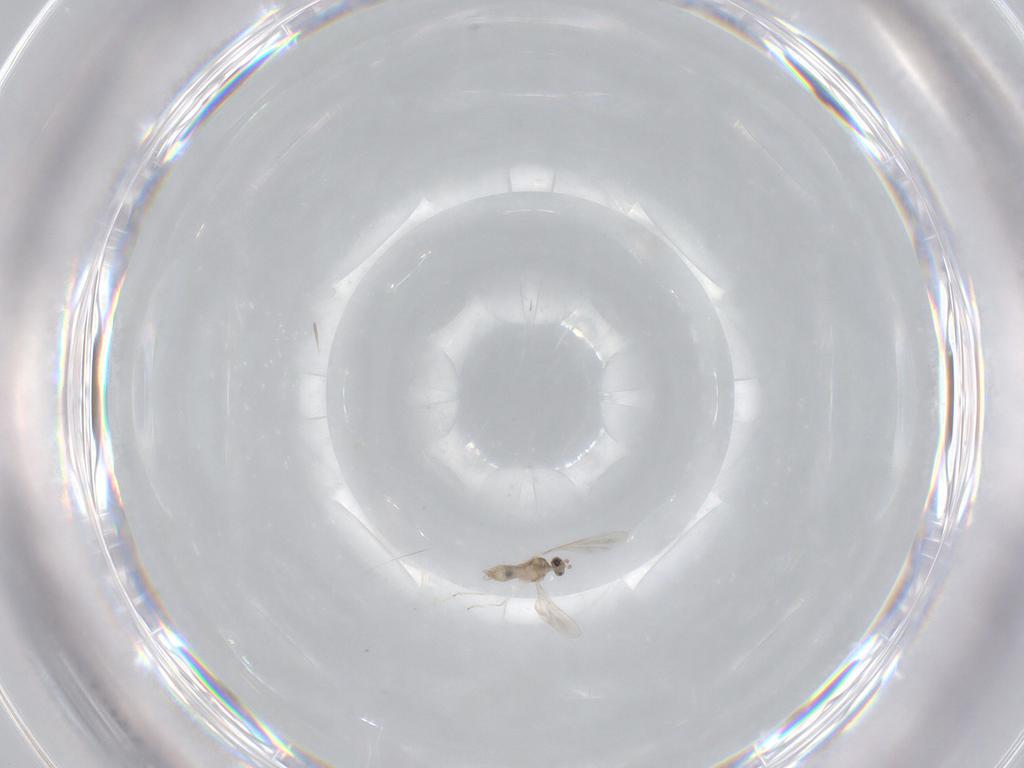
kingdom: Animalia
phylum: Arthropoda
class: Insecta
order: Diptera
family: Cecidomyiidae
